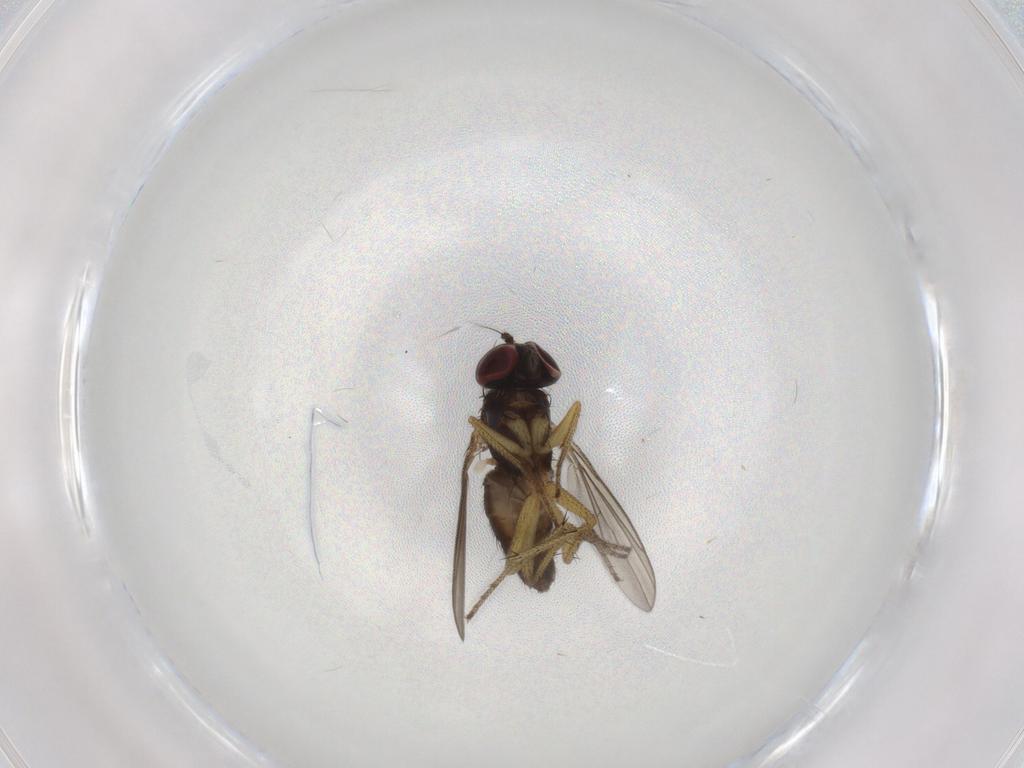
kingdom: Animalia
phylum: Arthropoda
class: Insecta
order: Diptera
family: Dolichopodidae
